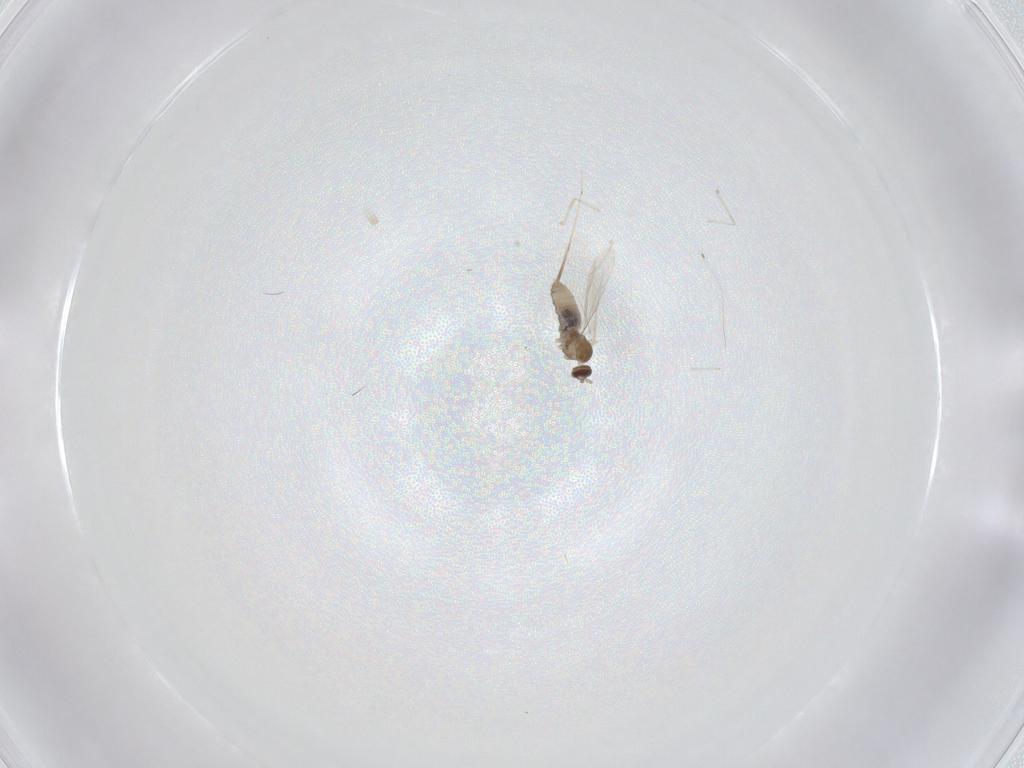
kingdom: Animalia
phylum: Arthropoda
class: Insecta
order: Diptera
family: Cecidomyiidae
